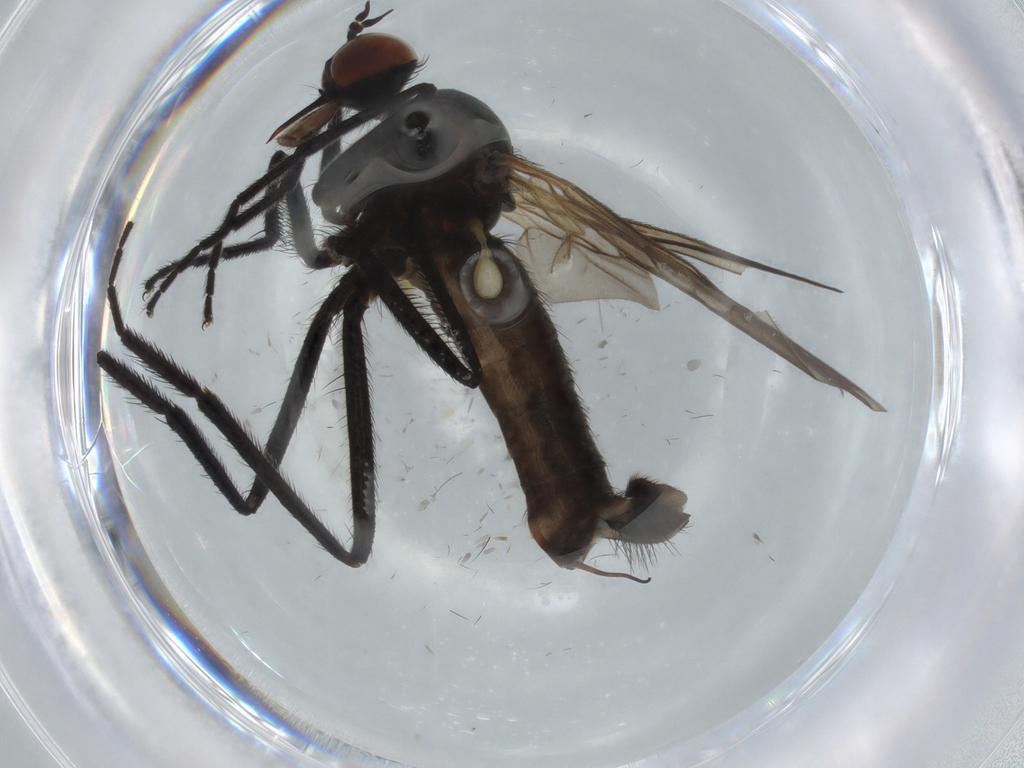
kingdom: Animalia
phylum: Arthropoda
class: Insecta
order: Diptera
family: Empididae
